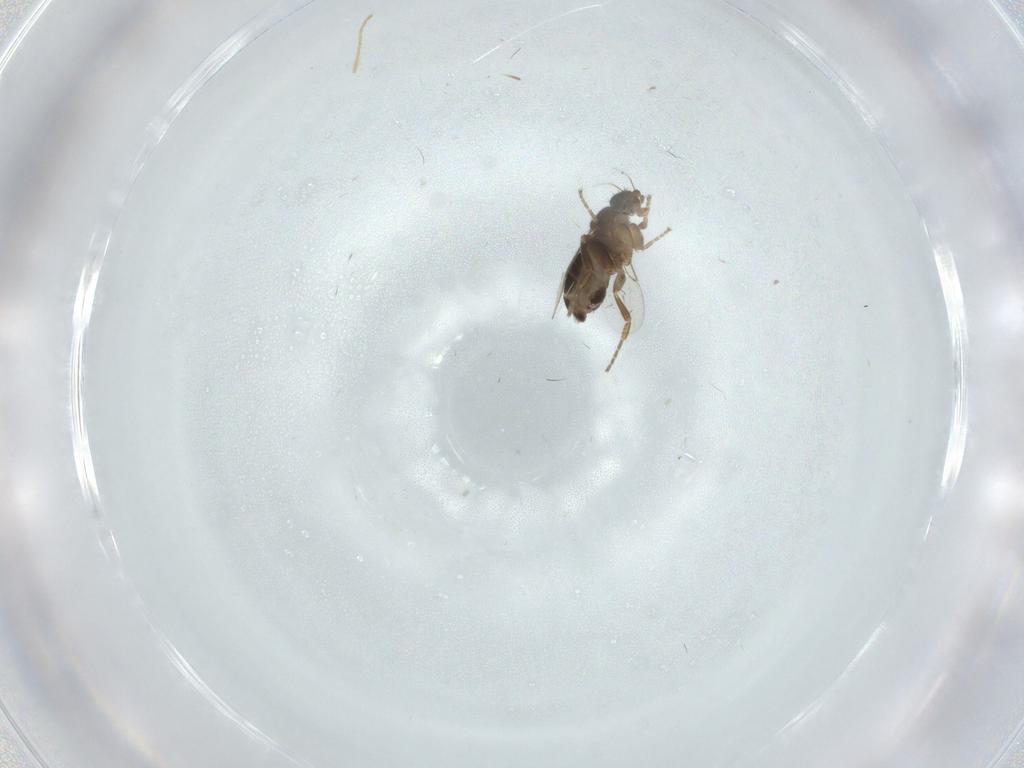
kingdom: Animalia
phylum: Arthropoda
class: Insecta
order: Diptera
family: Phoridae
